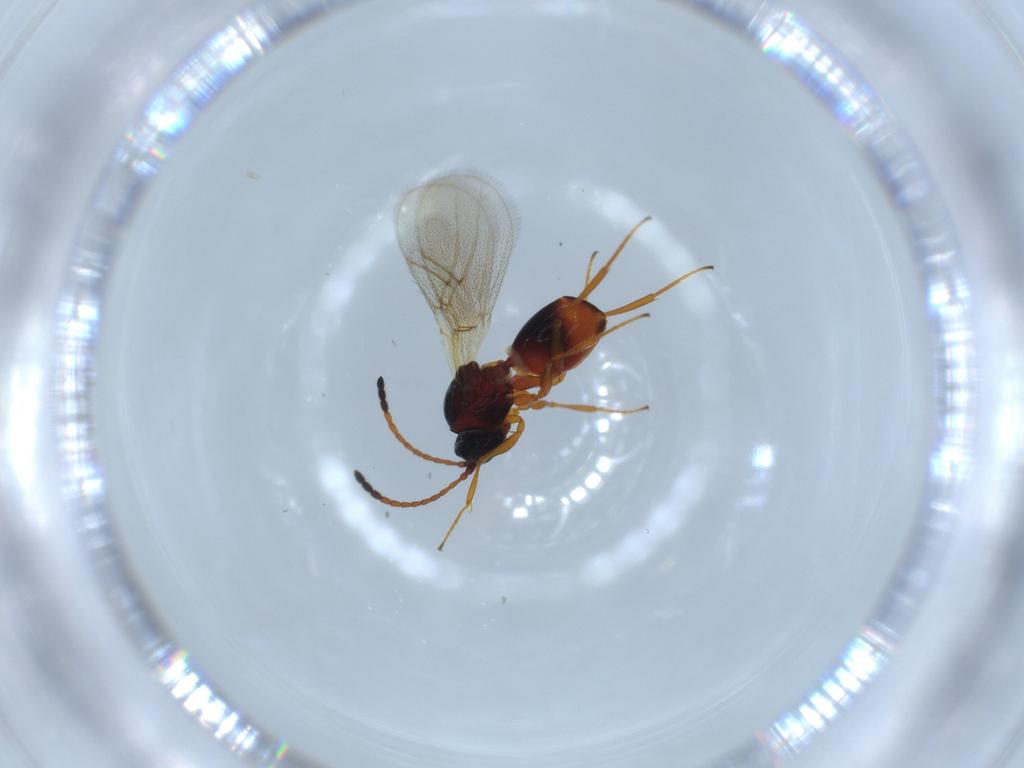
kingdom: Animalia
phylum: Arthropoda
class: Insecta
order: Hymenoptera
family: Figitidae
